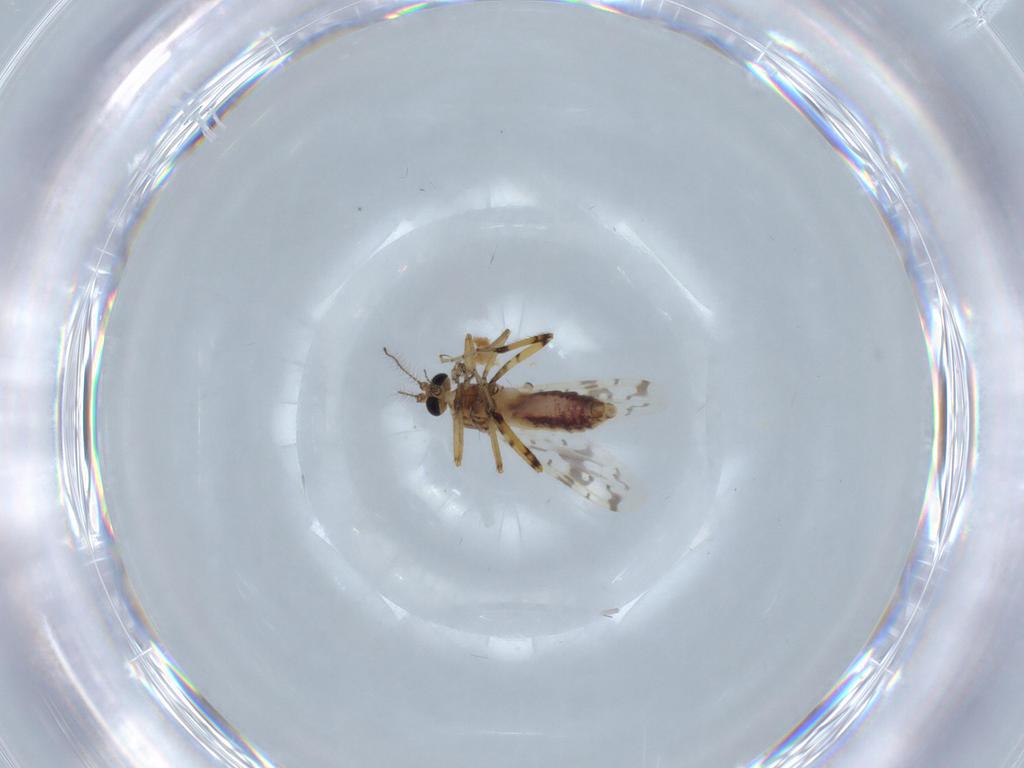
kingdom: Animalia
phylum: Arthropoda
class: Insecta
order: Diptera
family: Ceratopogonidae
